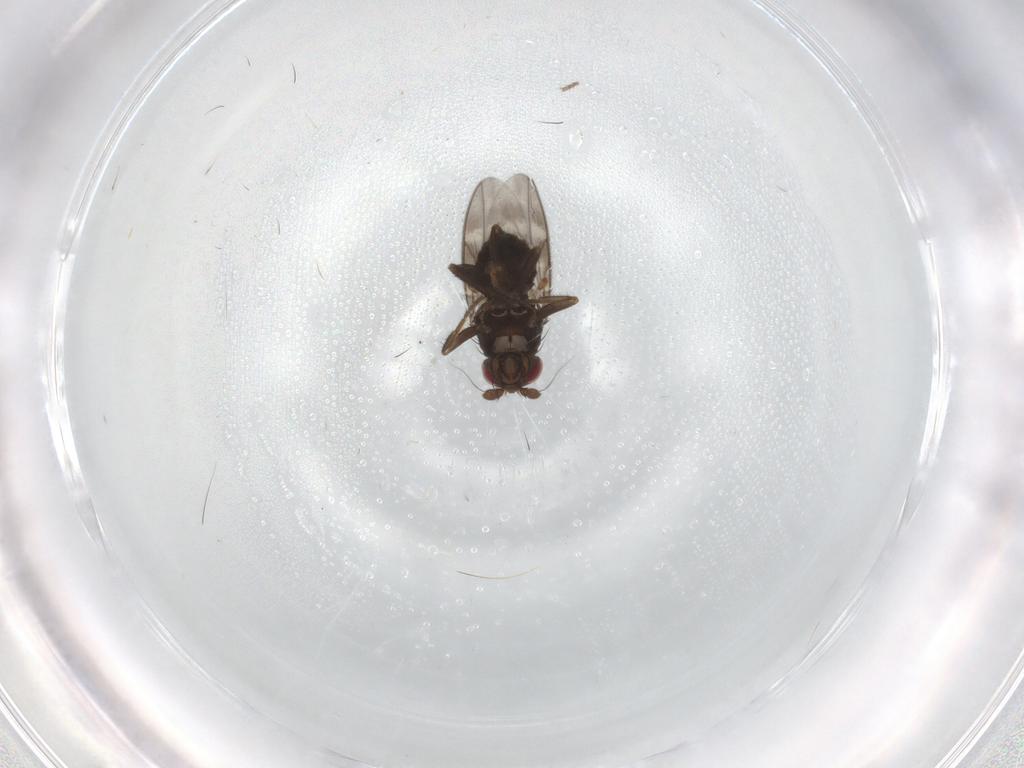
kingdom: Animalia
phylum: Arthropoda
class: Insecta
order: Diptera
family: Sphaeroceridae
